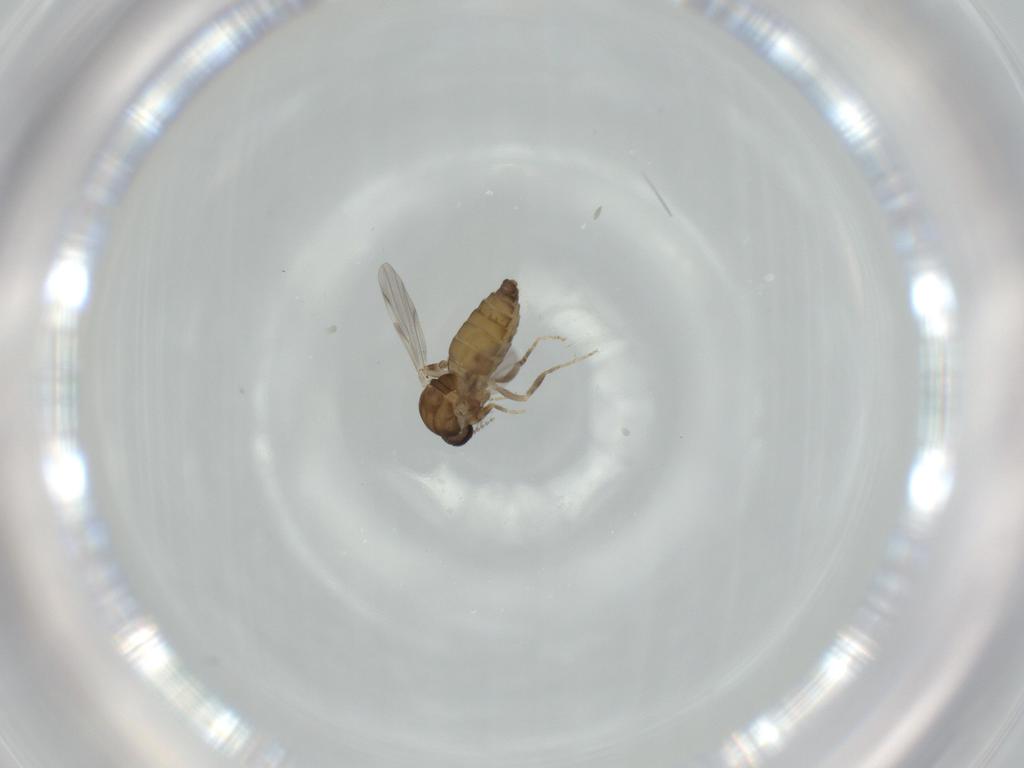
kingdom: Animalia
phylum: Arthropoda
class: Insecta
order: Diptera
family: Ceratopogonidae
